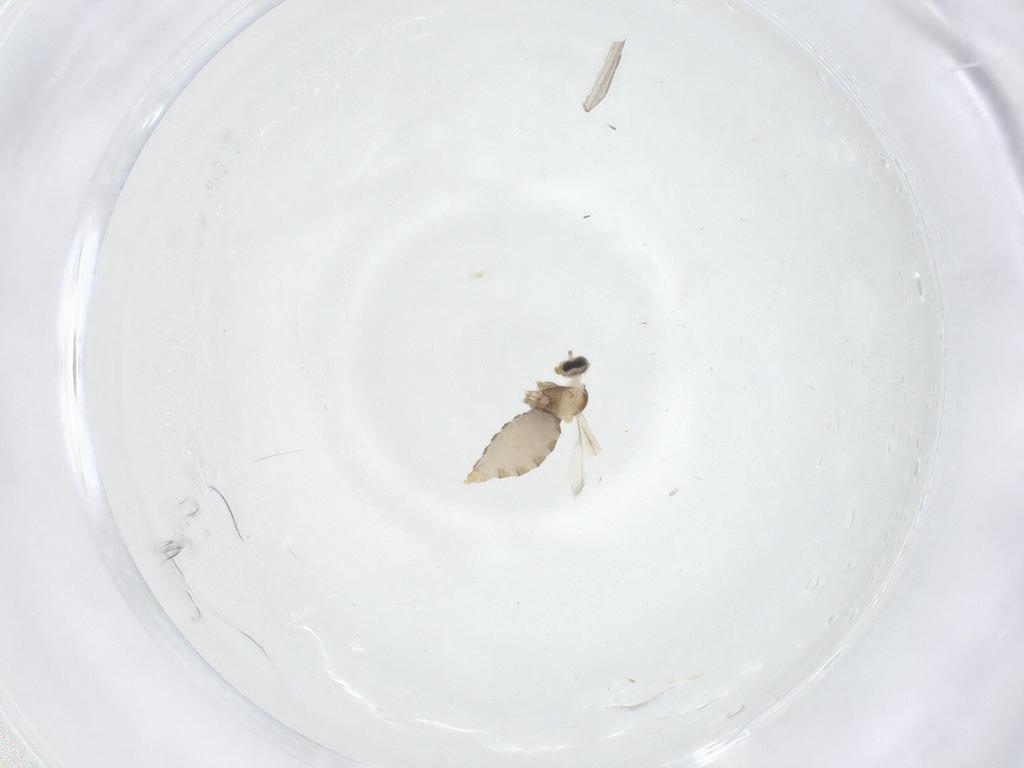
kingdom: Animalia
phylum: Arthropoda
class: Insecta
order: Diptera
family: Cecidomyiidae
